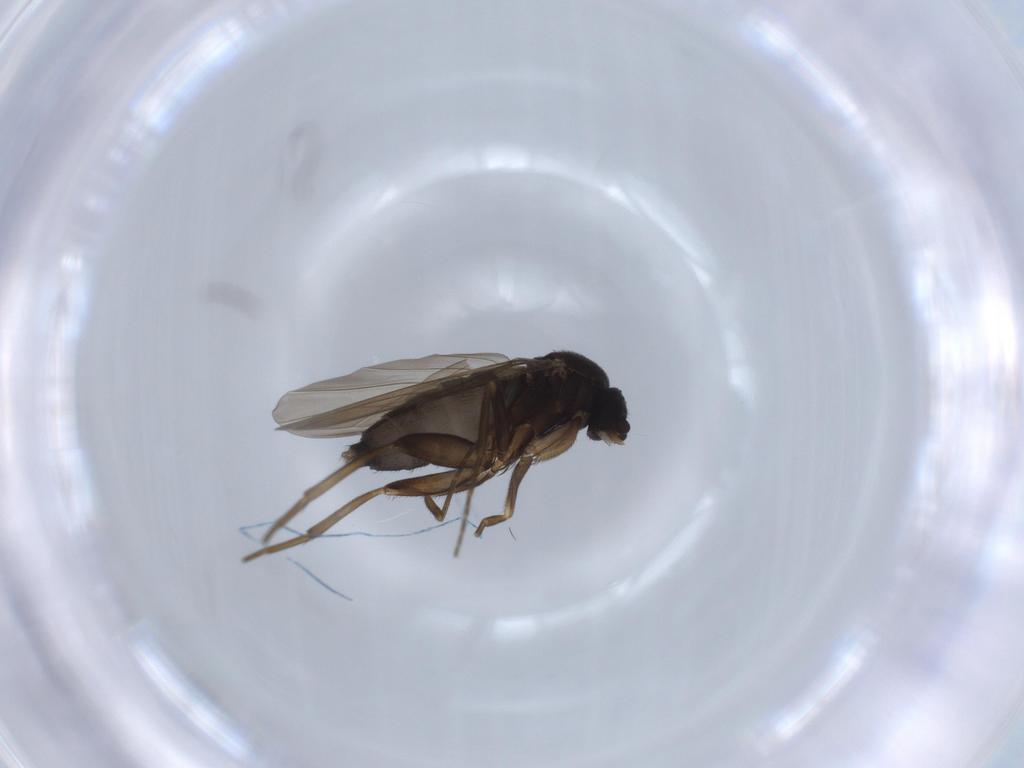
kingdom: Animalia
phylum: Arthropoda
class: Insecta
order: Diptera
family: Phoridae
